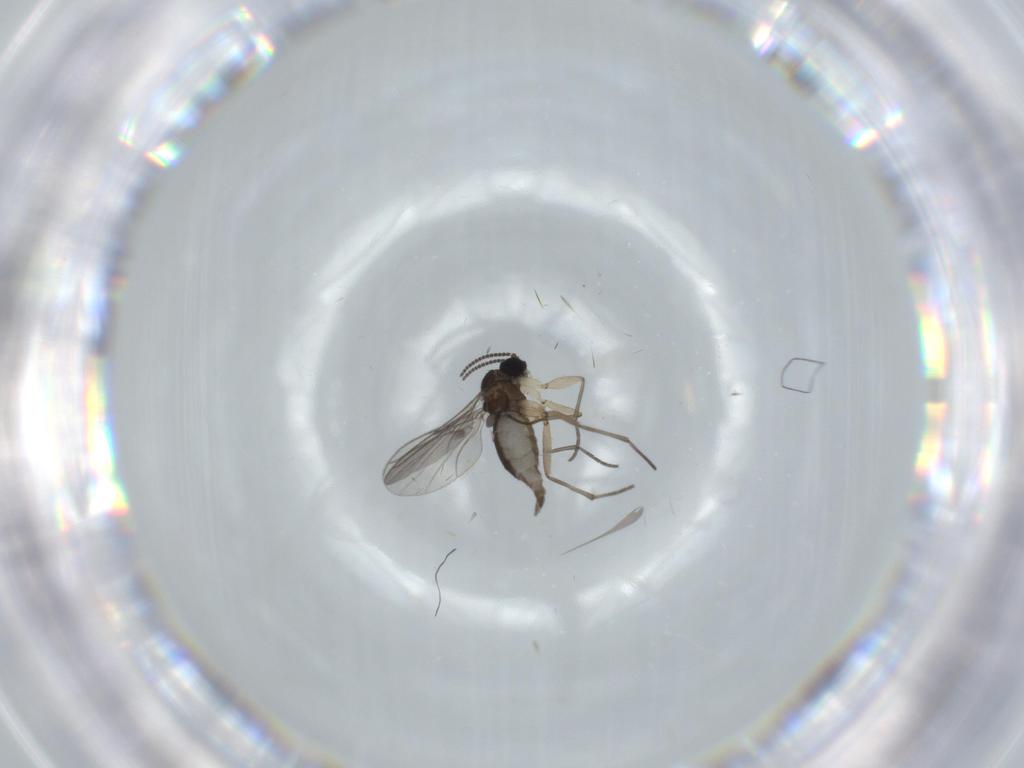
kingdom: Animalia
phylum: Arthropoda
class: Insecta
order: Diptera
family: Sciaridae
